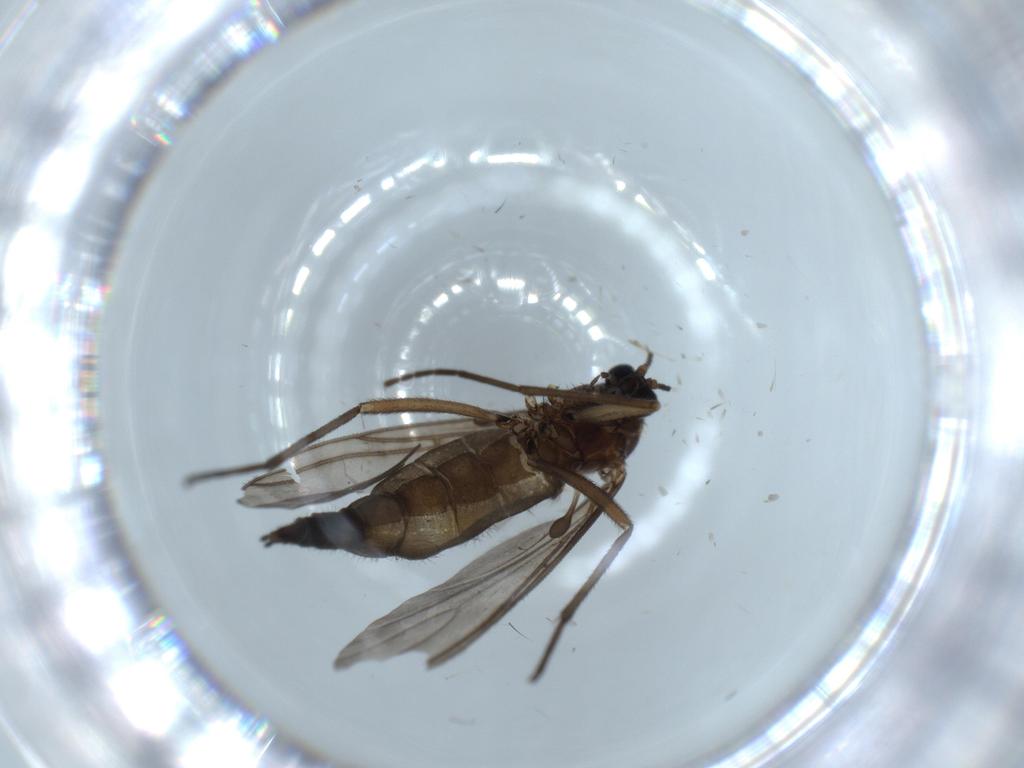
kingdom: Animalia
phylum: Arthropoda
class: Insecta
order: Diptera
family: Sciaridae
